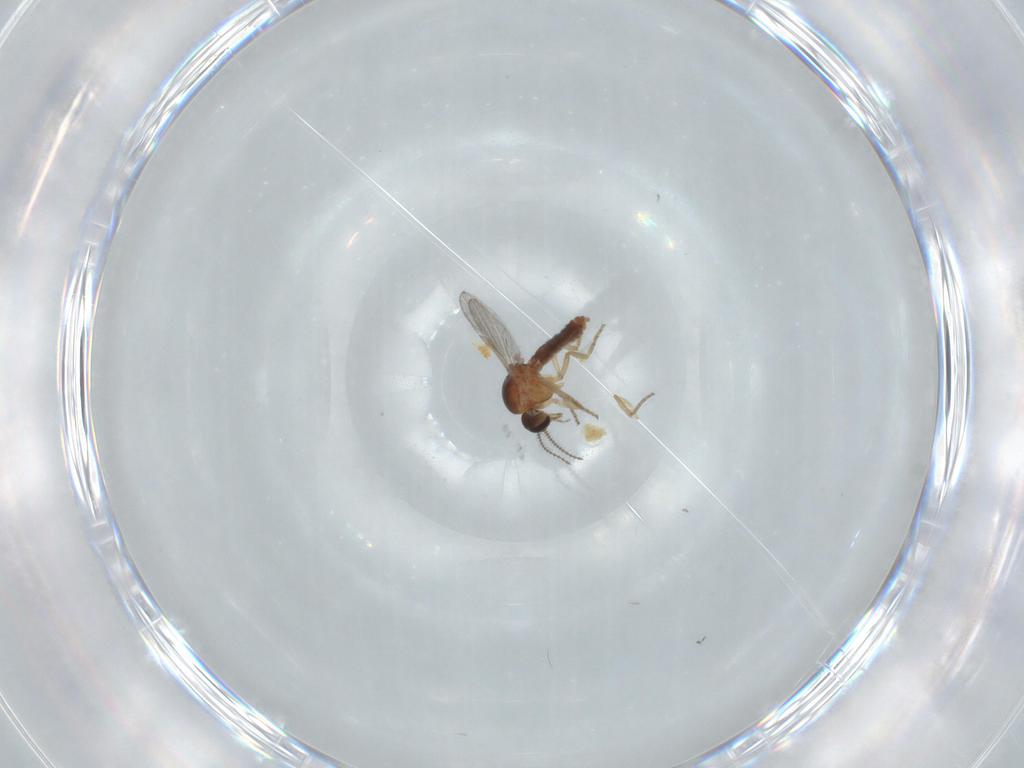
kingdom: Animalia
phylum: Arthropoda
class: Insecta
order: Diptera
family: Ceratopogonidae
